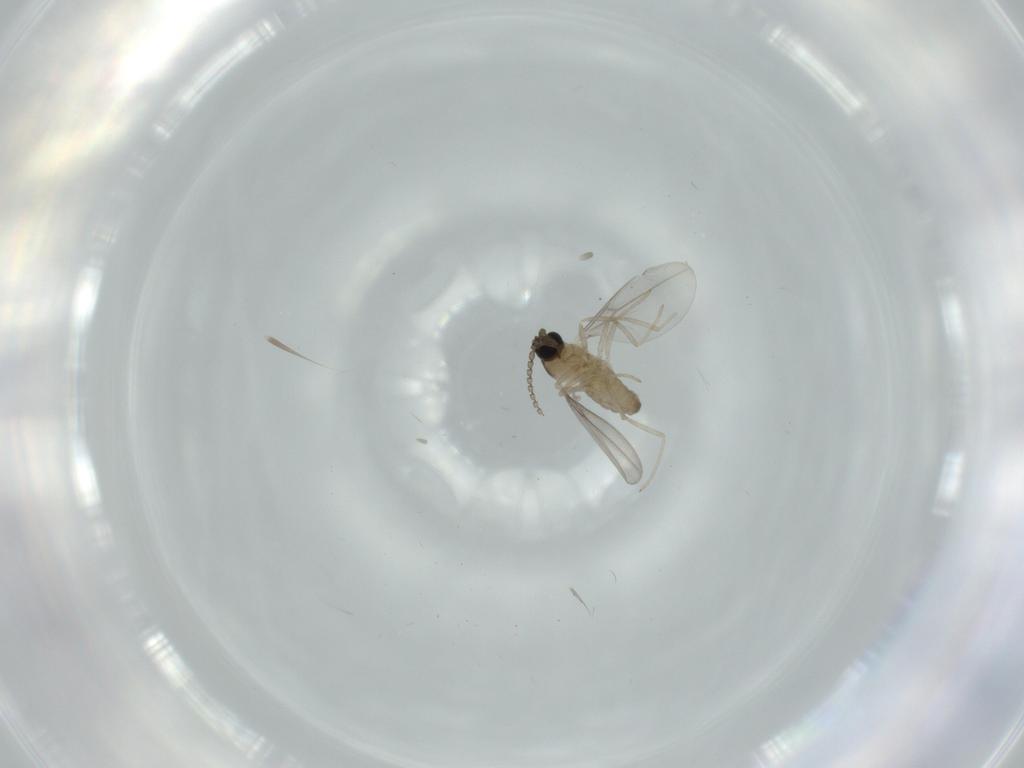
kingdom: Animalia
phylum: Arthropoda
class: Insecta
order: Diptera
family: Cecidomyiidae
